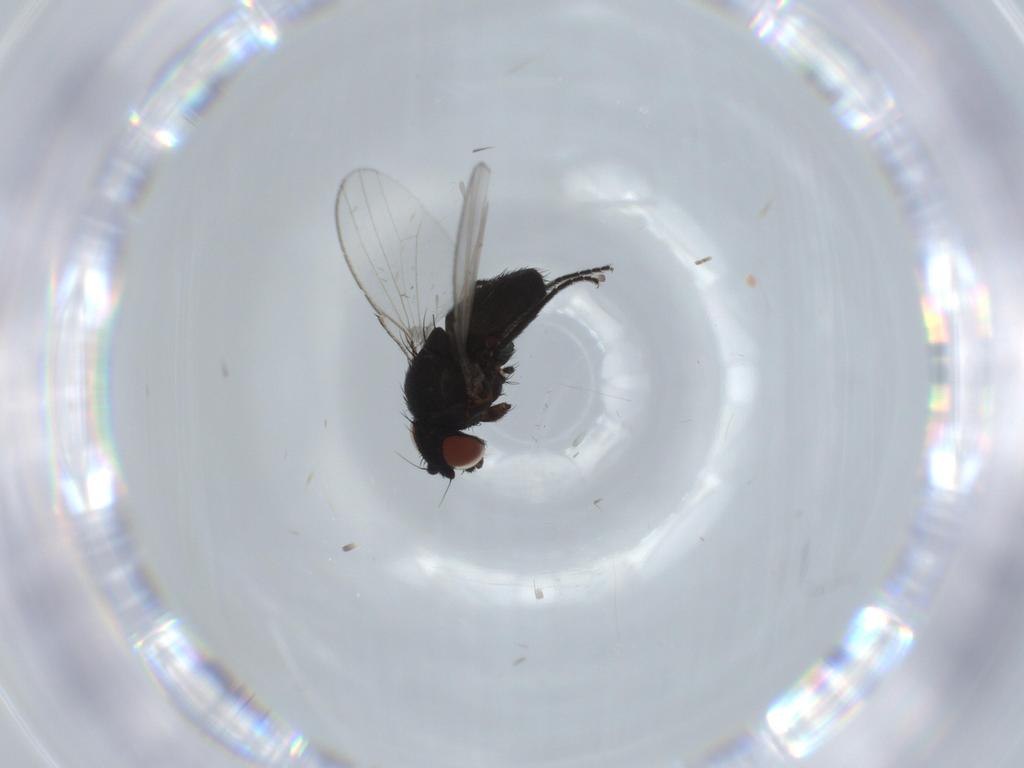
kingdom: Animalia
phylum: Arthropoda
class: Insecta
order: Diptera
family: Milichiidae
